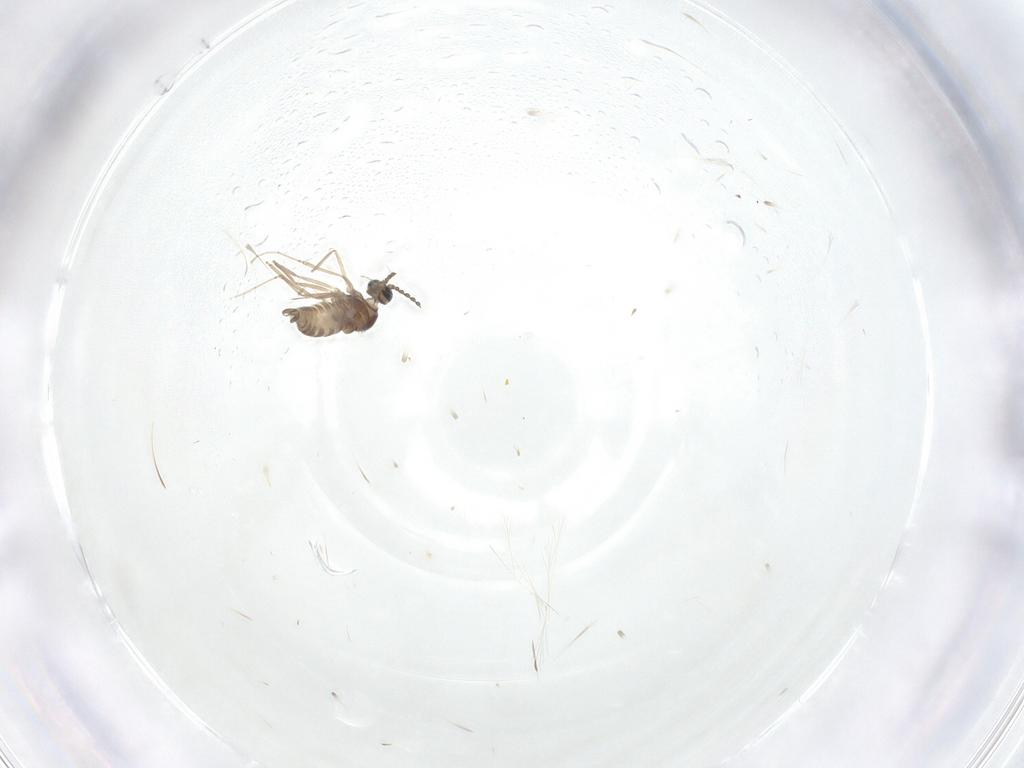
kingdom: Animalia
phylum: Arthropoda
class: Insecta
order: Diptera
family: Cecidomyiidae
